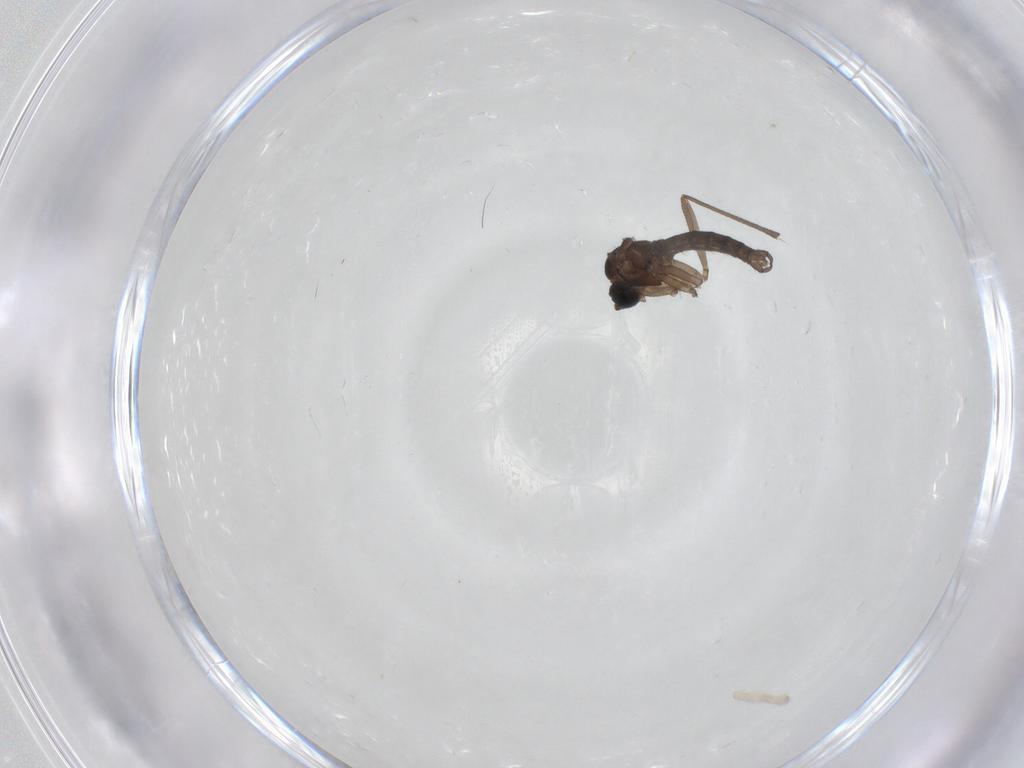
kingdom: Animalia
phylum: Arthropoda
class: Insecta
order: Diptera
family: Sciaridae
